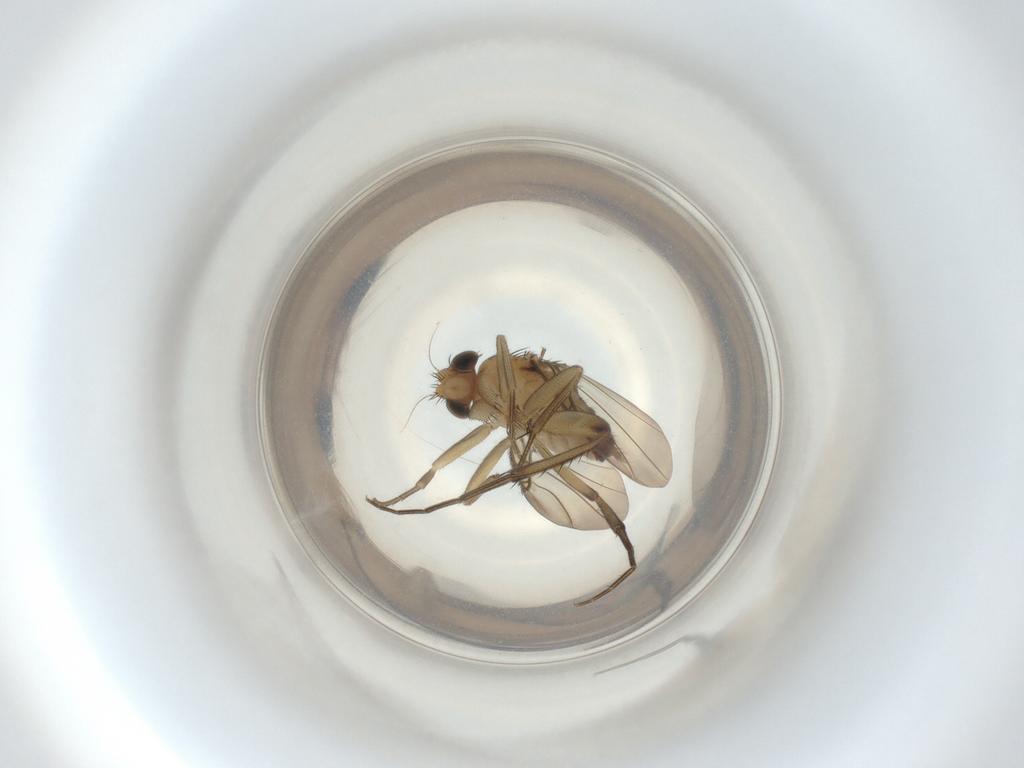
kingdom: Animalia
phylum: Arthropoda
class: Insecta
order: Diptera
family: Phoridae
